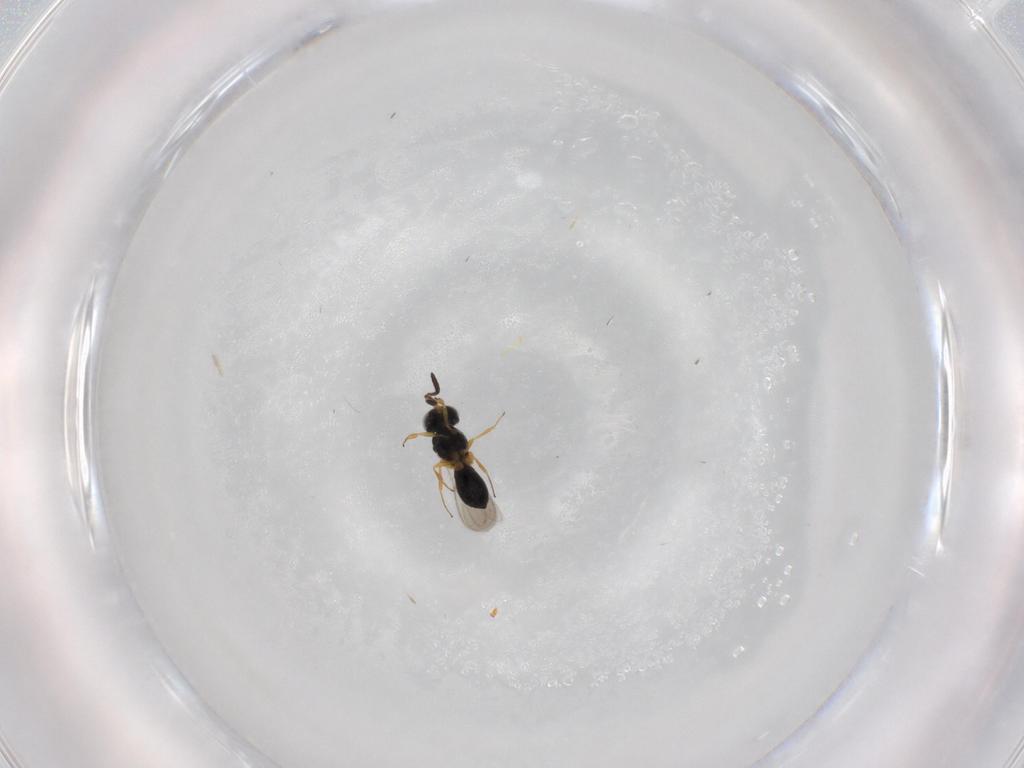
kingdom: Animalia
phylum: Arthropoda
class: Insecta
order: Hymenoptera
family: Scelionidae
